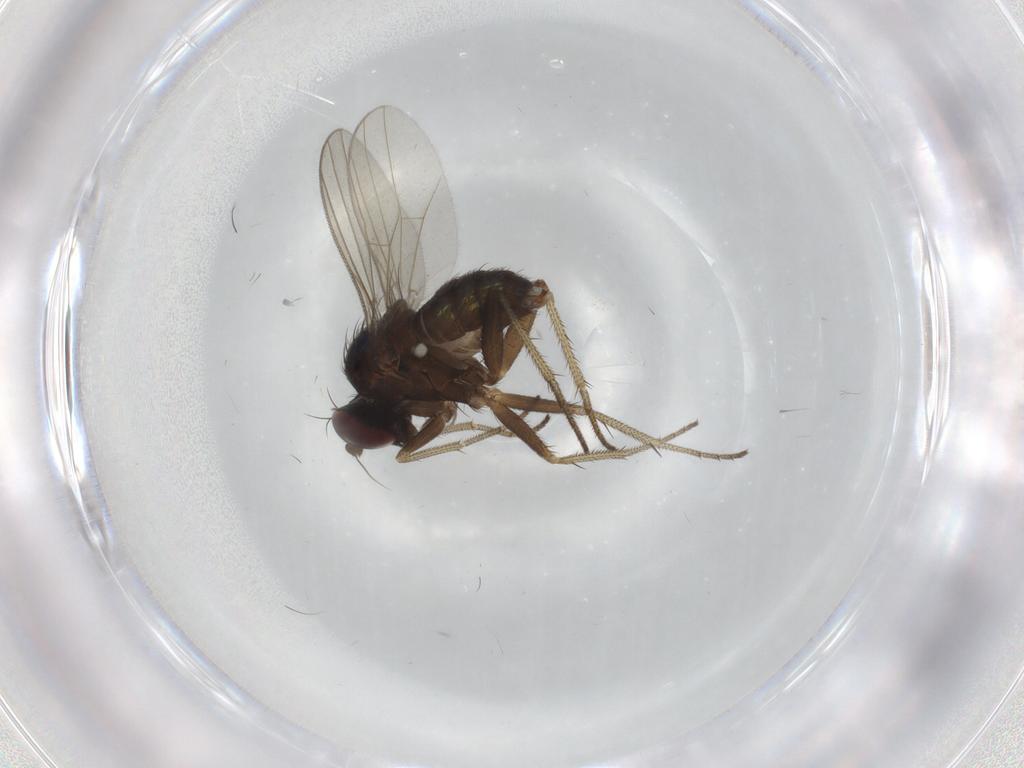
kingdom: Animalia
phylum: Arthropoda
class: Insecta
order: Diptera
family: Dolichopodidae
